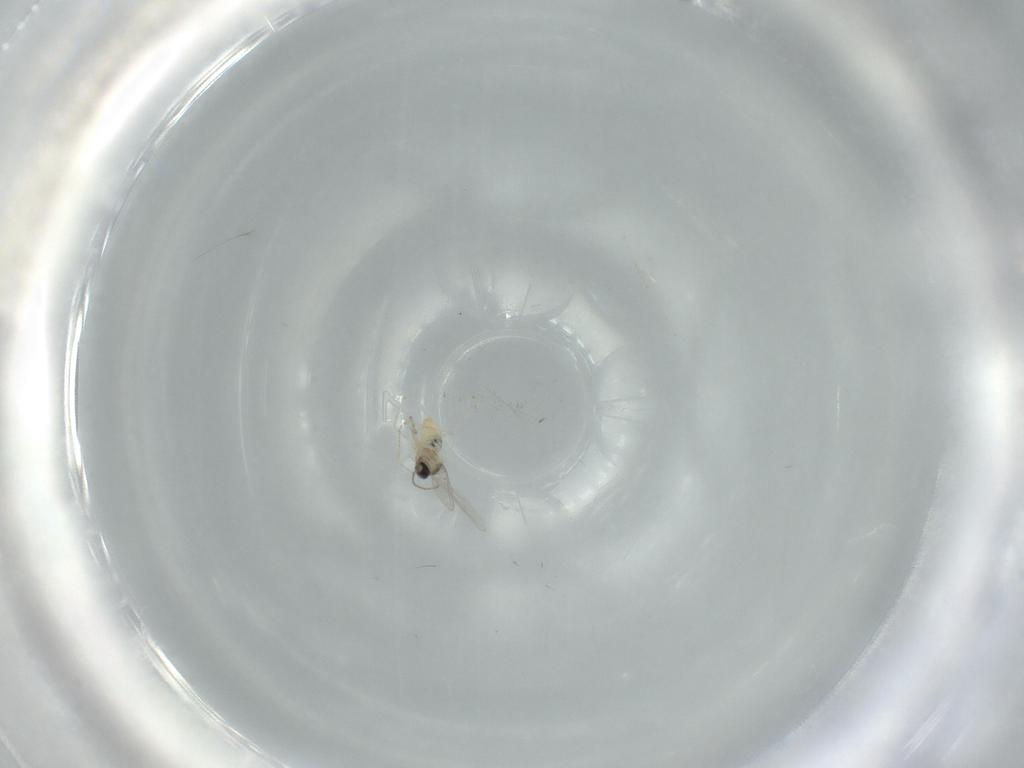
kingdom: Animalia
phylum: Arthropoda
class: Insecta
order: Diptera
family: Cecidomyiidae
